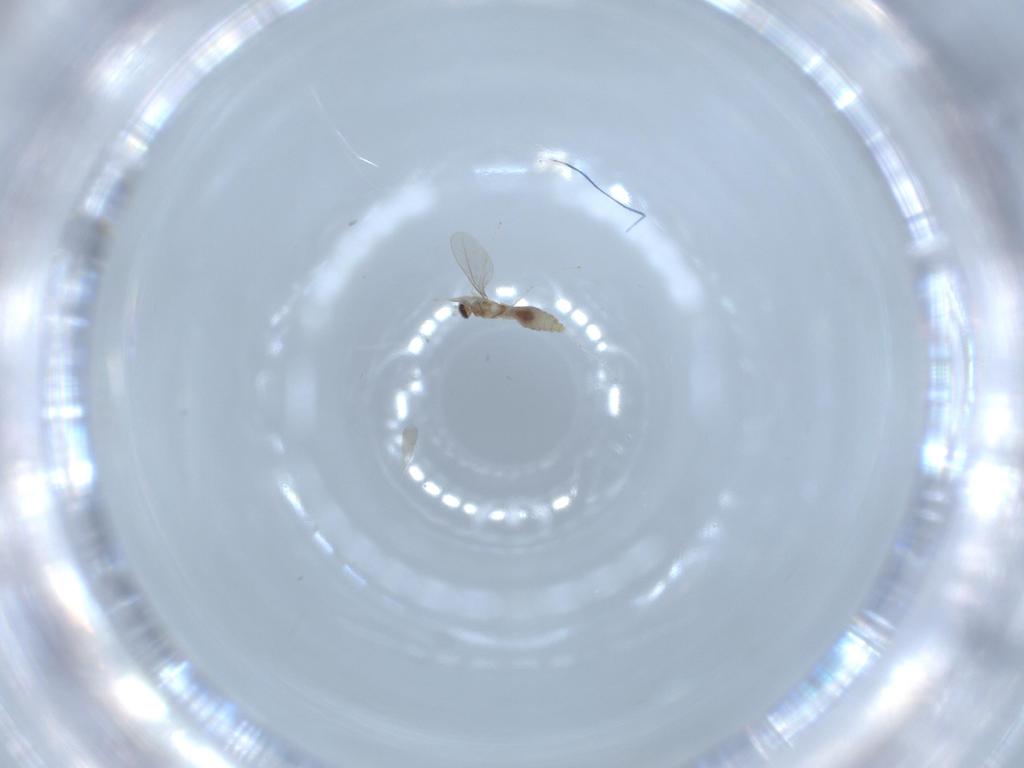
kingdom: Animalia
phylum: Arthropoda
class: Insecta
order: Diptera
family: Cecidomyiidae
